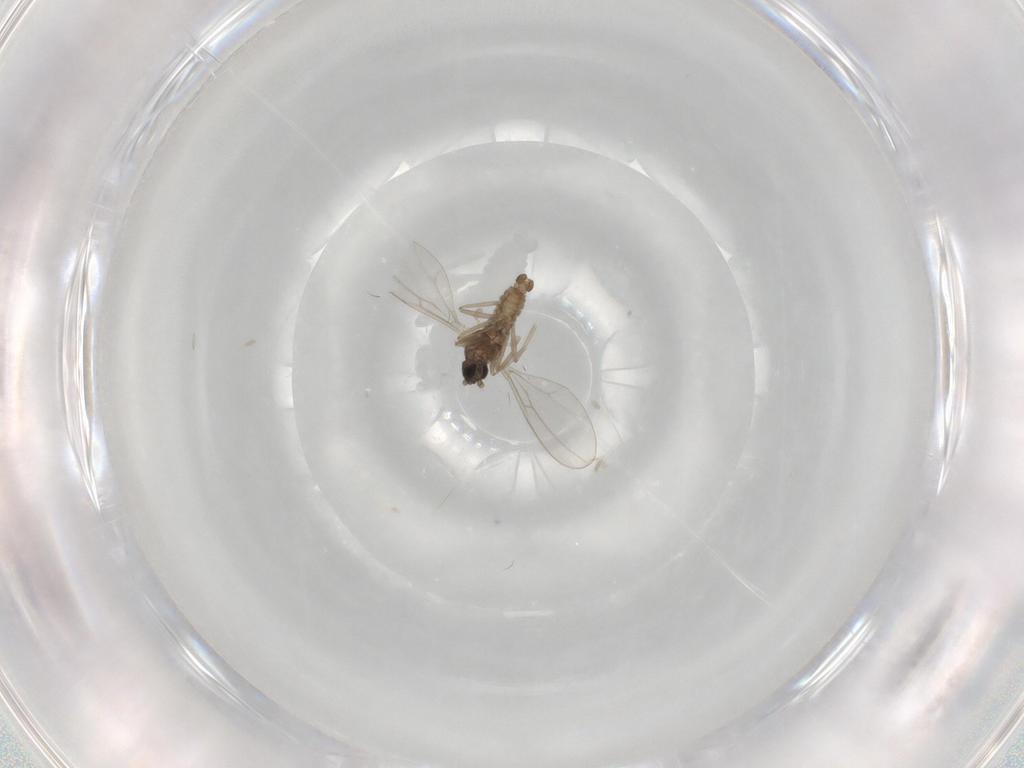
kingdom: Animalia
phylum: Arthropoda
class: Insecta
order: Diptera
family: Cecidomyiidae
